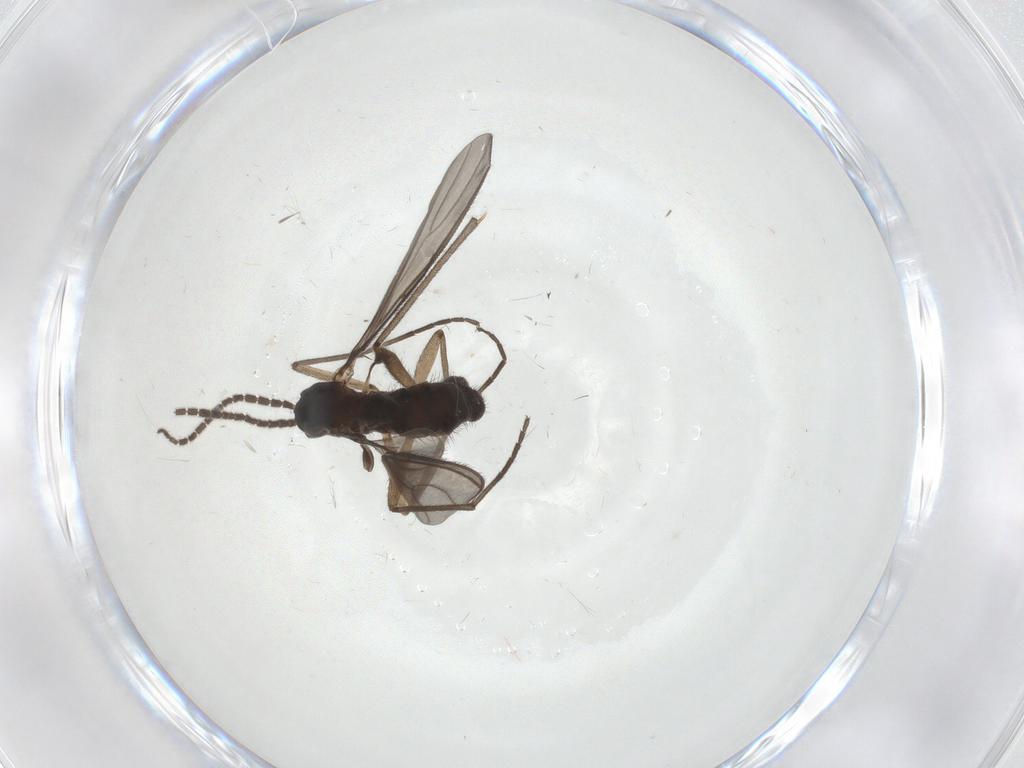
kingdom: Animalia
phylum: Arthropoda
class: Insecta
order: Diptera
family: Sciaridae
